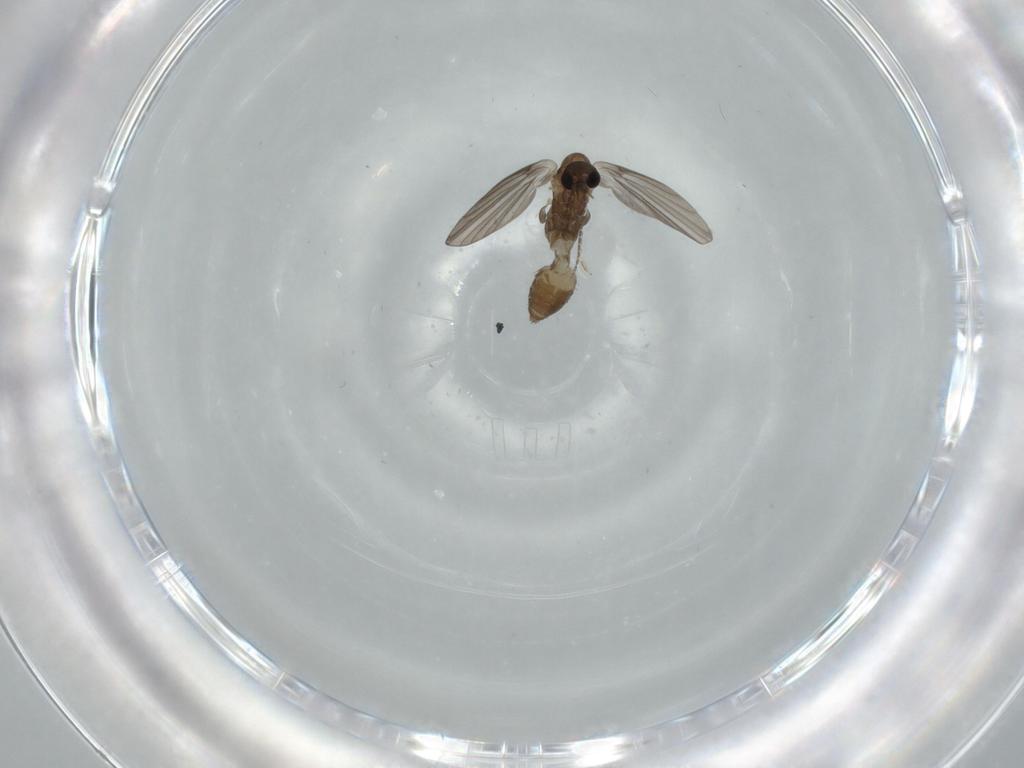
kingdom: Animalia
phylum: Arthropoda
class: Insecta
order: Diptera
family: Psychodidae
